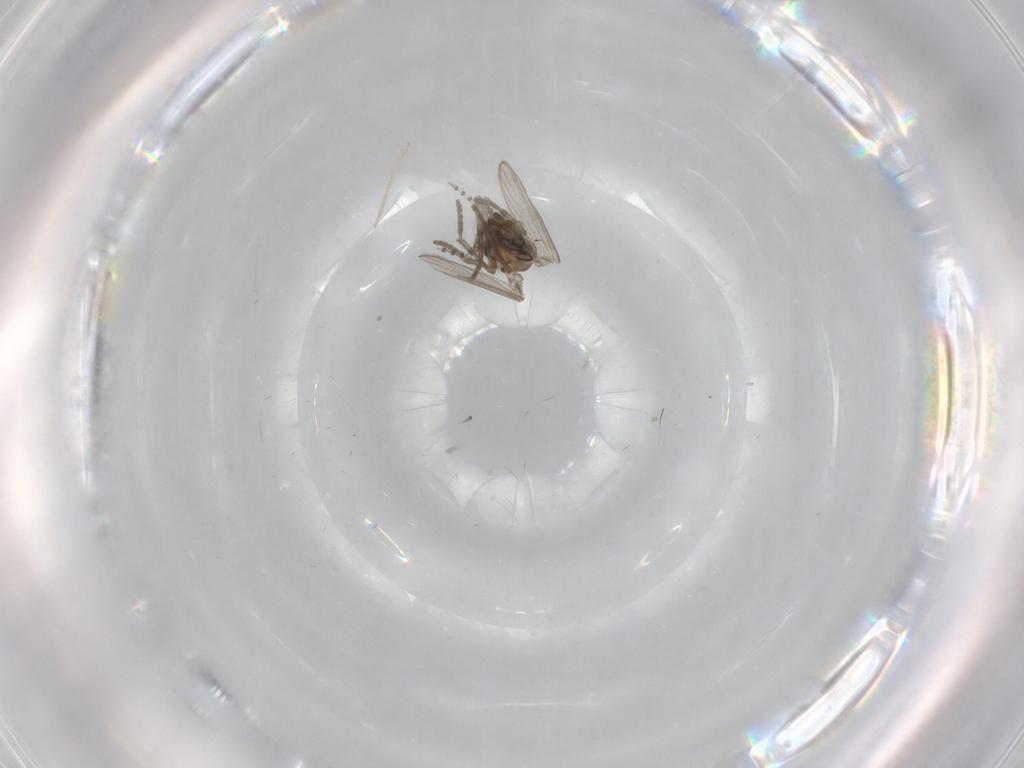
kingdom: Animalia
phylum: Arthropoda
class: Insecta
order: Diptera
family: Psychodidae
